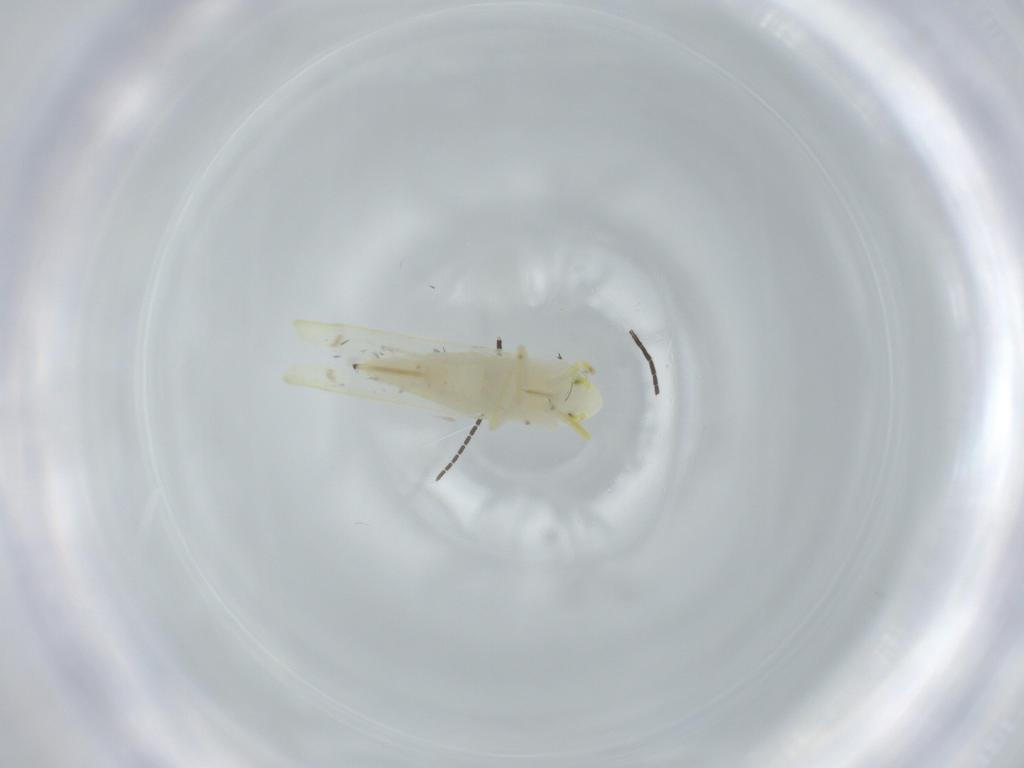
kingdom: Animalia
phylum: Arthropoda
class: Insecta
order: Hemiptera
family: Cicadellidae
